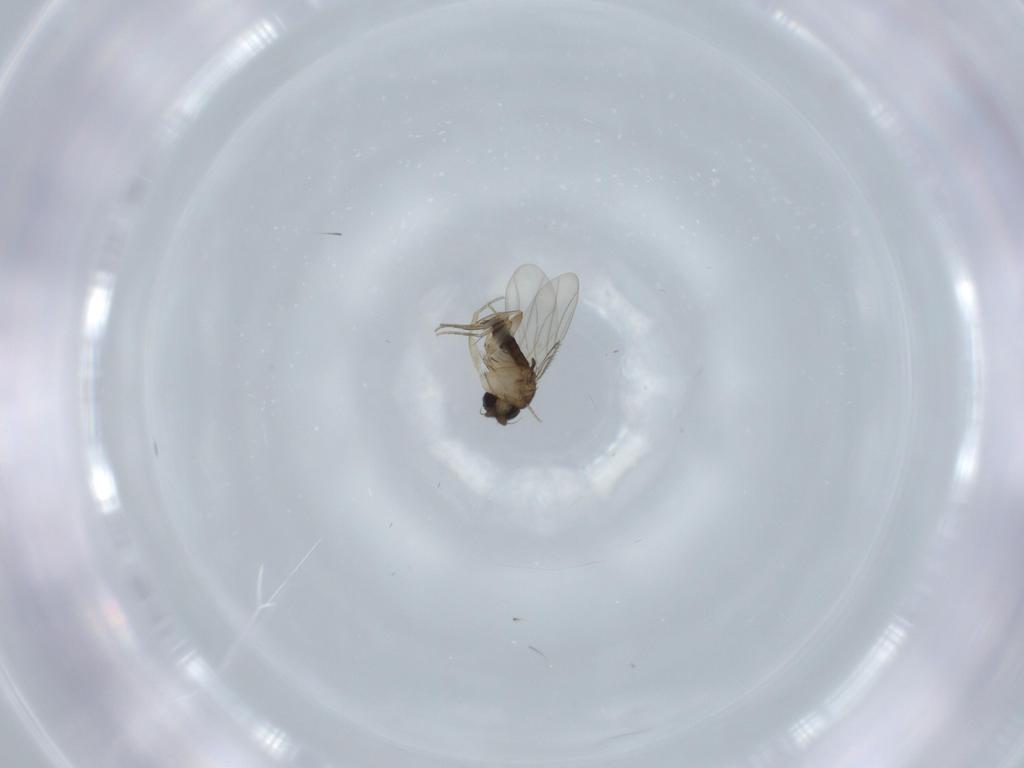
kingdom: Animalia
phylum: Arthropoda
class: Insecta
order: Diptera
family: Phoridae
